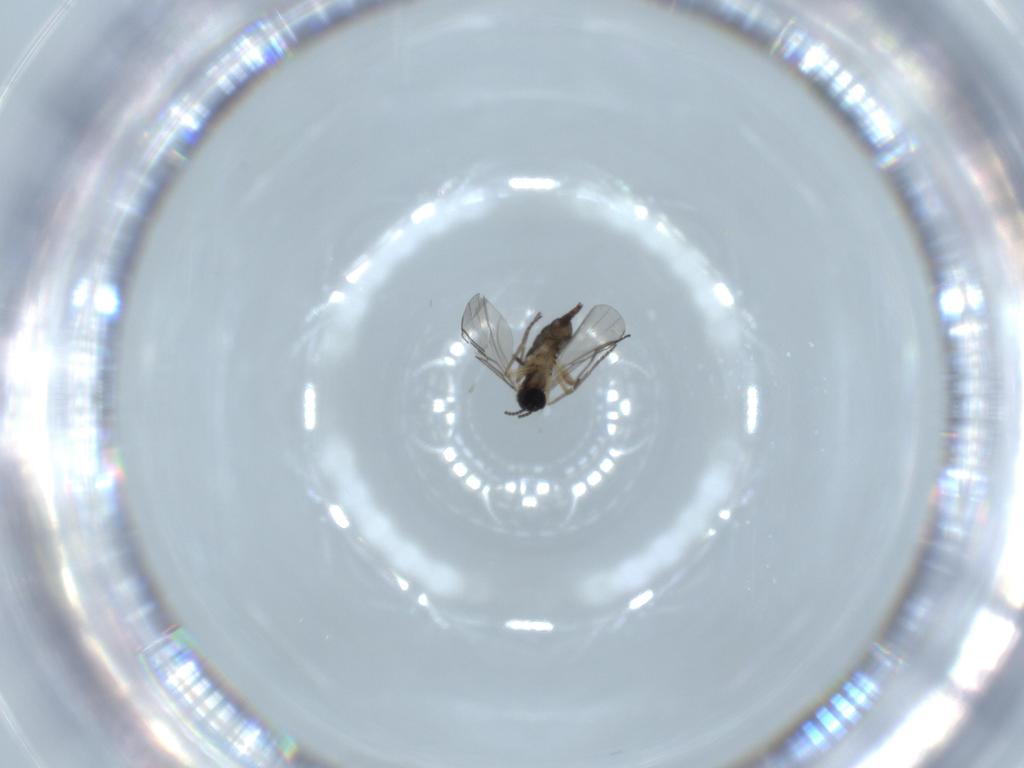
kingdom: Animalia
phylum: Arthropoda
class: Insecta
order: Diptera
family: Sciaridae
